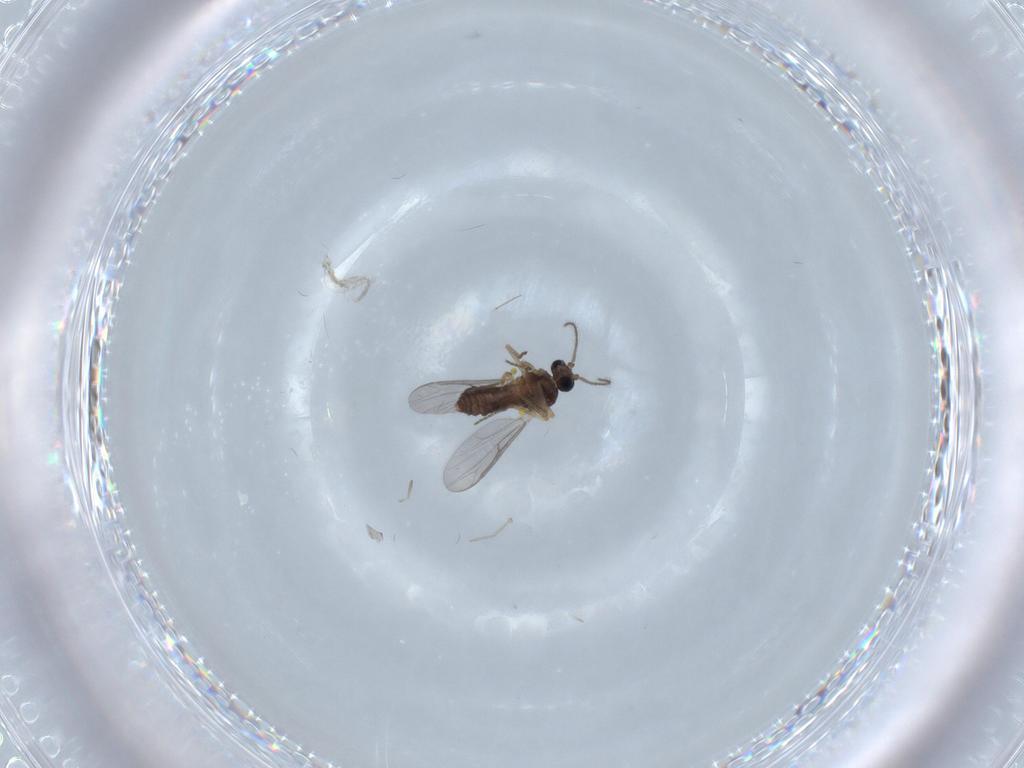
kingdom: Animalia
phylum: Arthropoda
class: Insecta
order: Diptera
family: Ceratopogonidae
